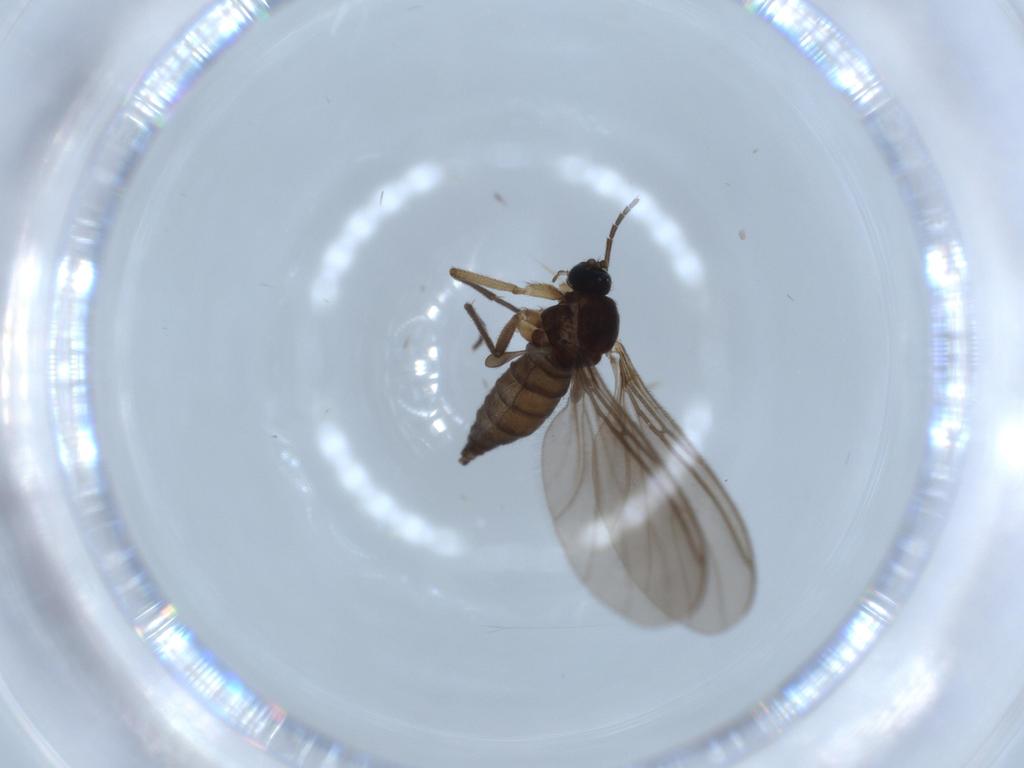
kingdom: Animalia
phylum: Arthropoda
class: Insecta
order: Diptera
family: Sciaridae
